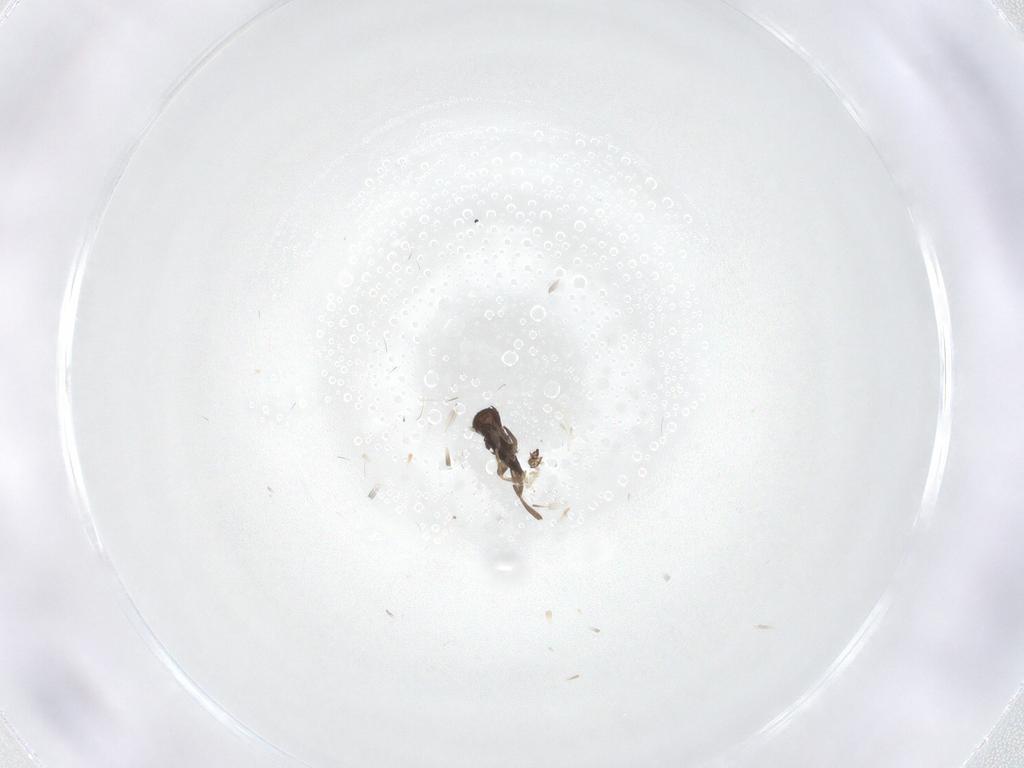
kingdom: Animalia
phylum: Arthropoda
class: Insecta
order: Diptera
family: Phoridae
